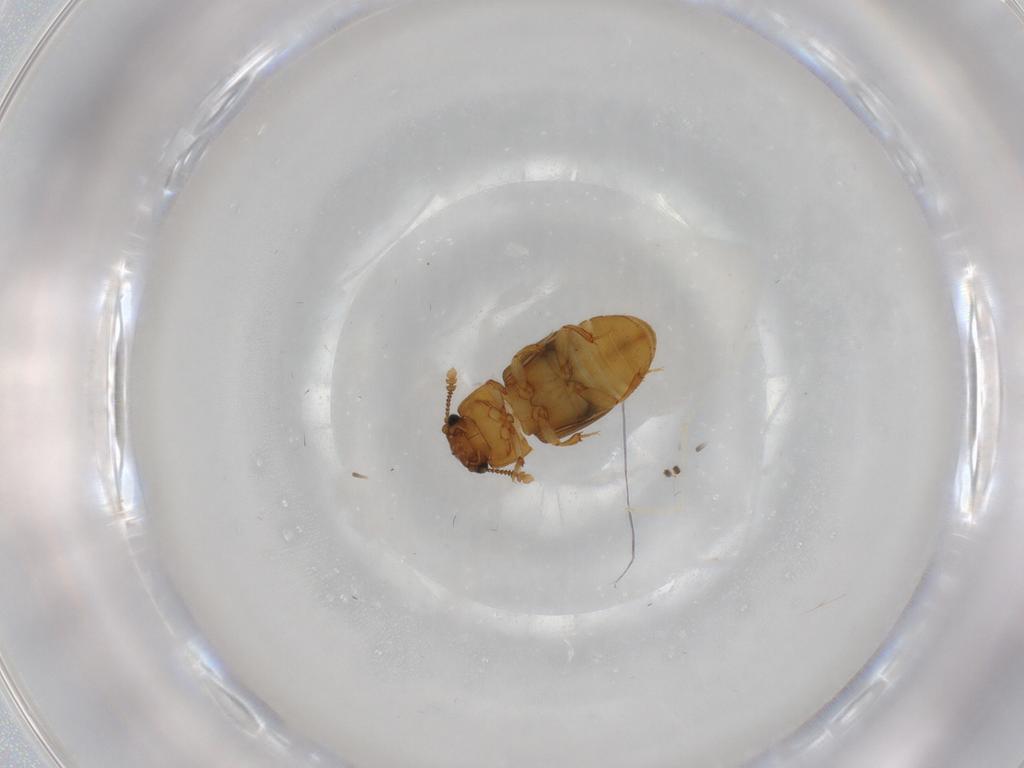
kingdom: Animalia
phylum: Arthropoda
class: Insecta
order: Coleoptera
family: Nitidulidae
